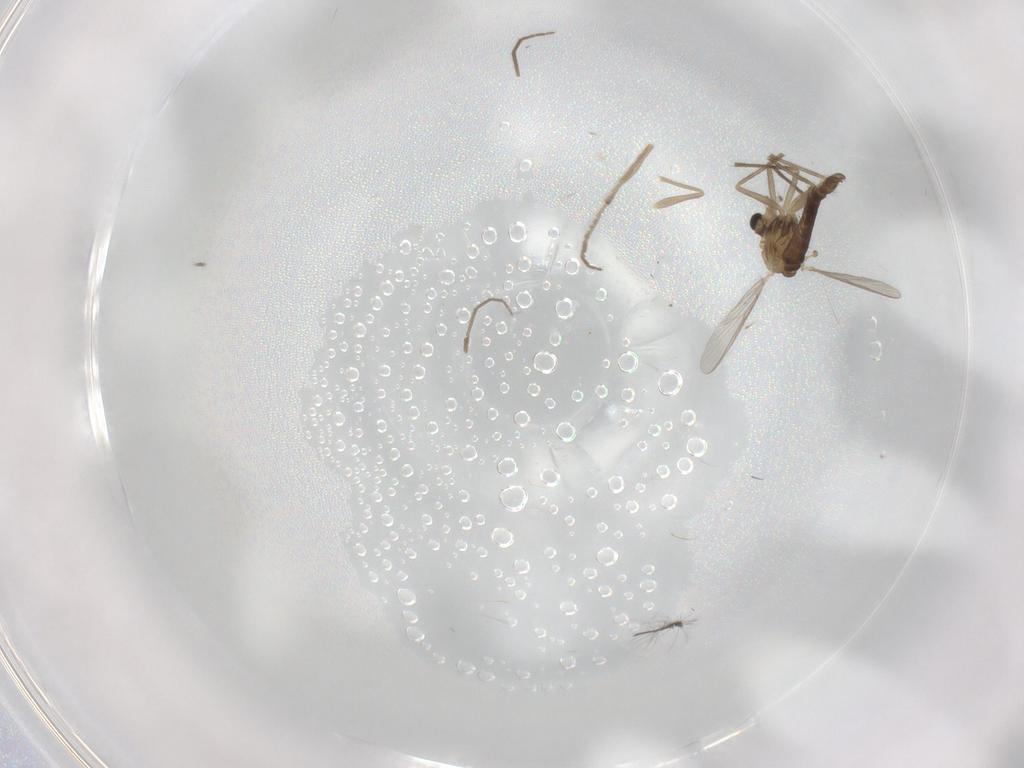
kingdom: Animalia
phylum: Arthropoda
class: Insecta
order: Diptera
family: Chironomidae
